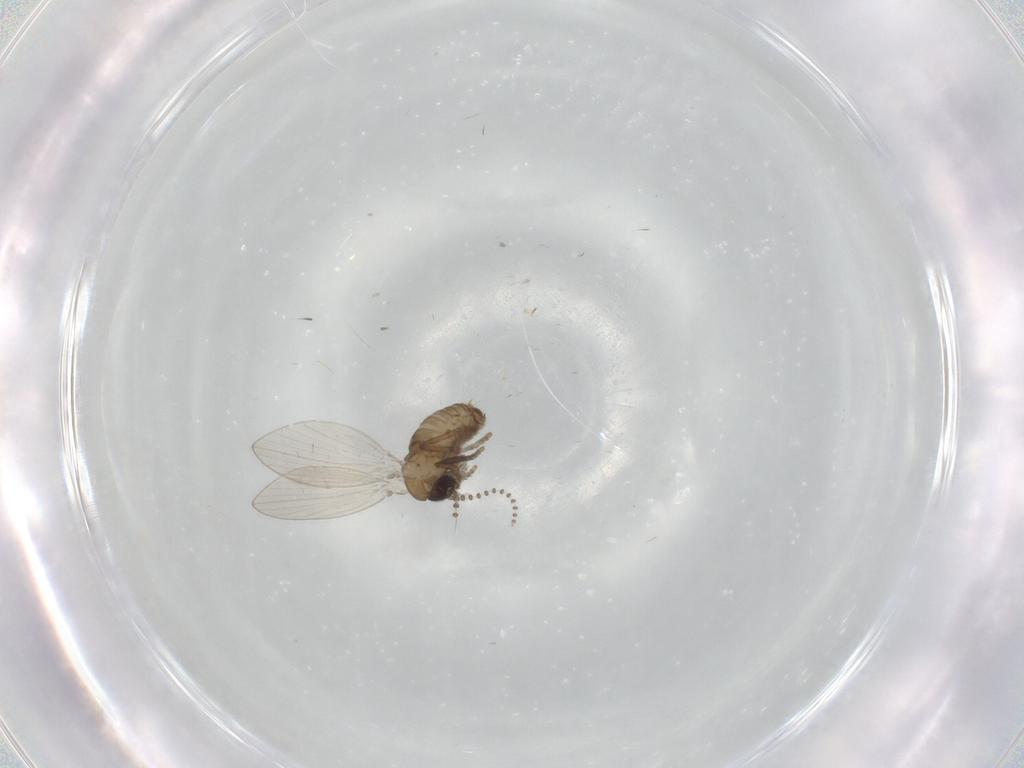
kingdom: Animalia
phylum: Arthropoda
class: Insecta
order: Diptera
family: Psychodidae
